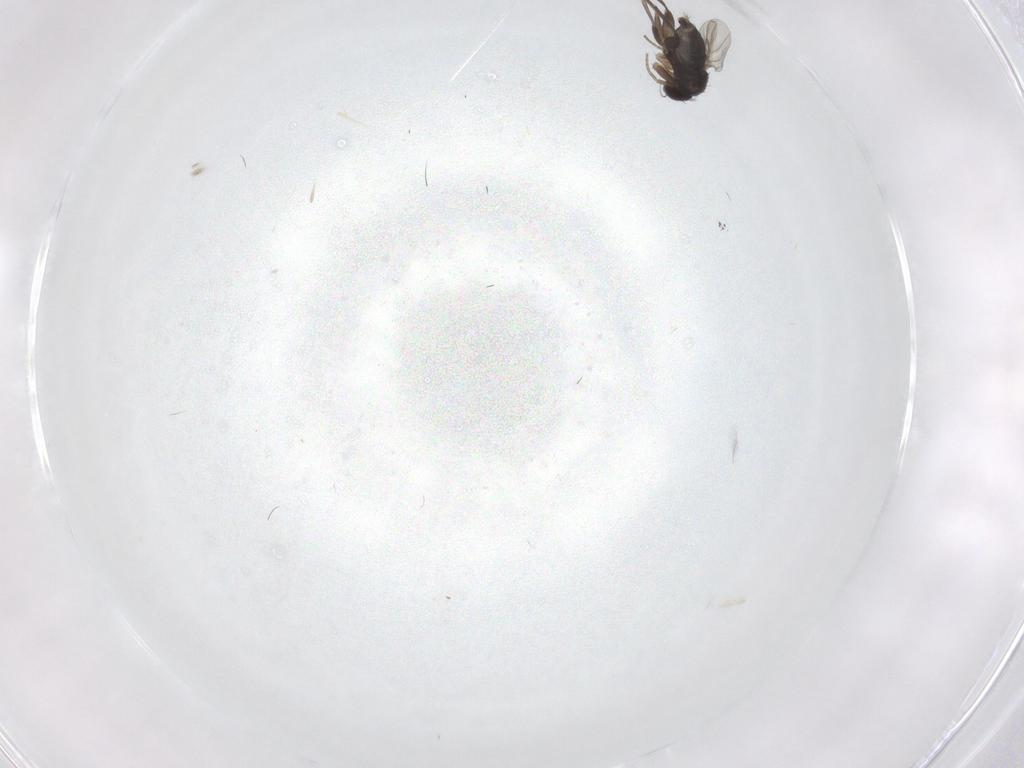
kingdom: Animalia
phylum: Arthropoda
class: Insecta
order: Diptera
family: Phoridae
